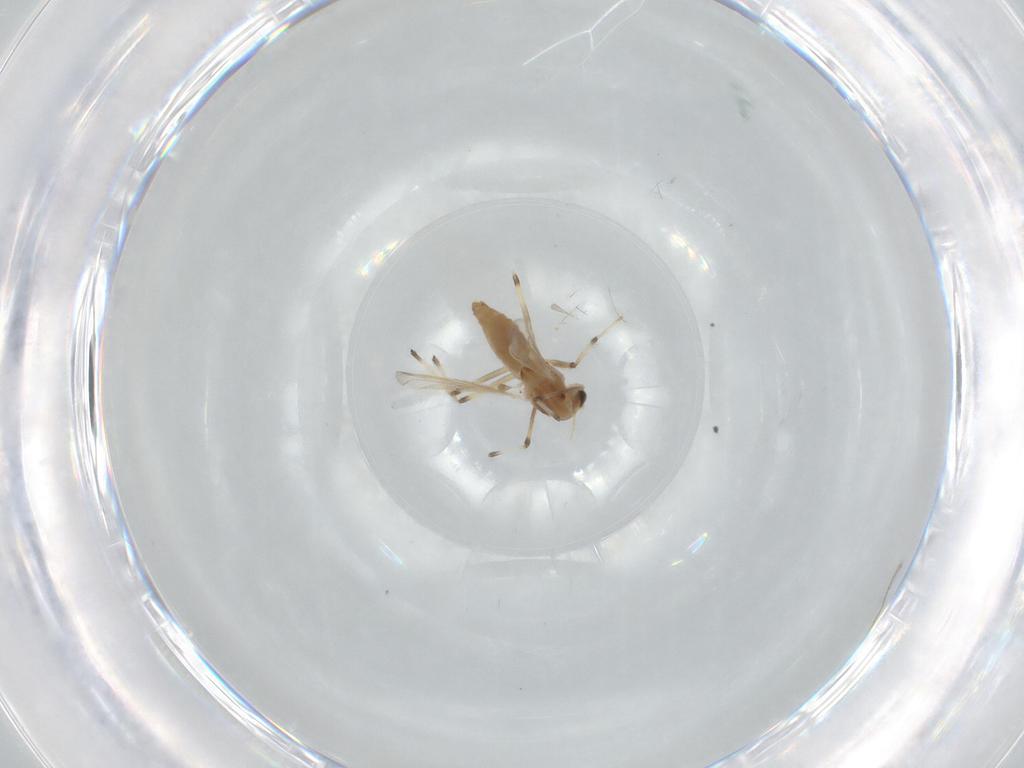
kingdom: Animalia
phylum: Arthropoda
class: Insecta
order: Diptera
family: Chironomidae
